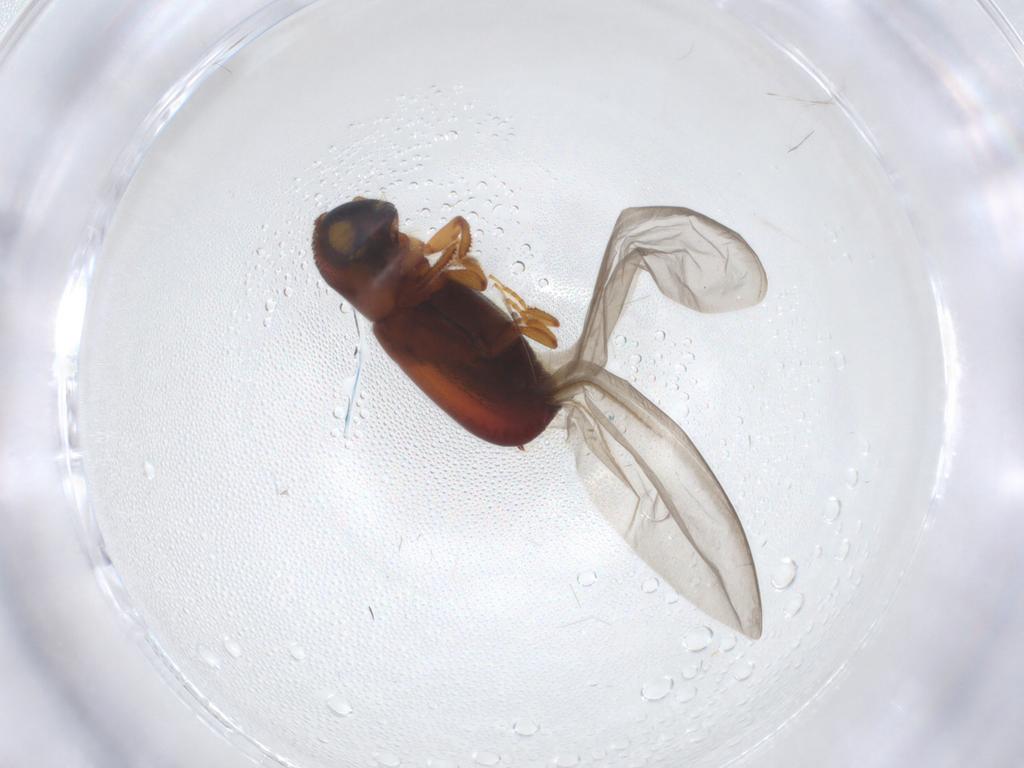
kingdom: Animalia
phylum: Arthropoda
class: Insecta
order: Coleoptera
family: Curculionidae
